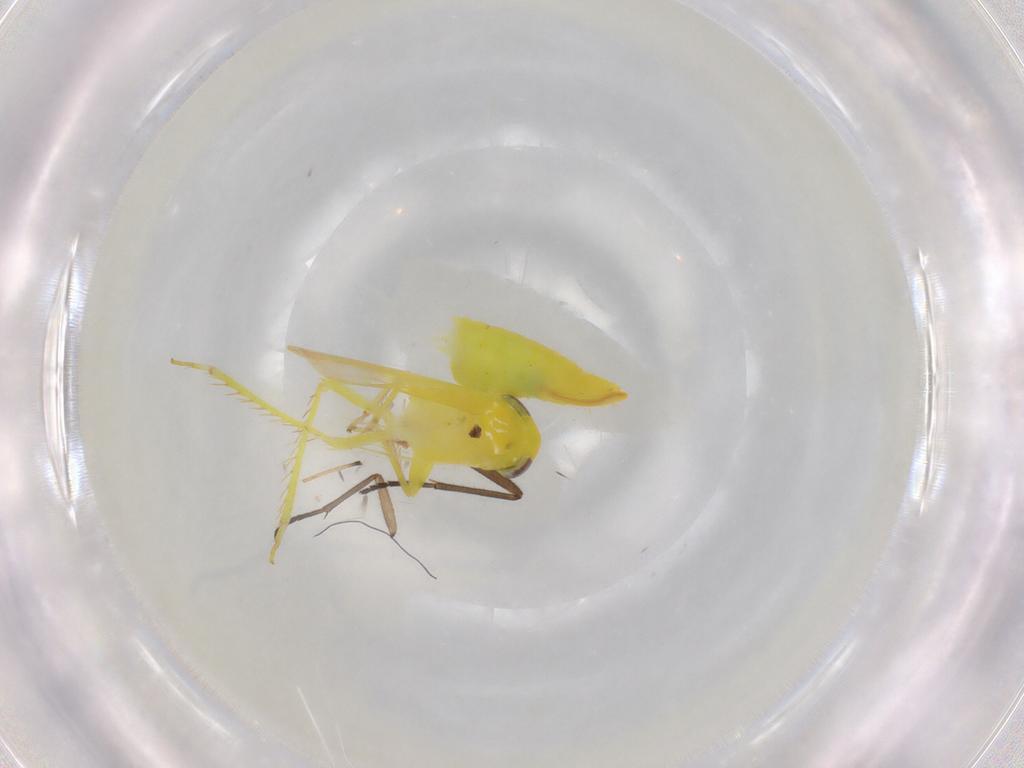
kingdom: Animalia
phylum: Arthropoda
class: Insecta
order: Hemiptera
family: Cicadellidae
